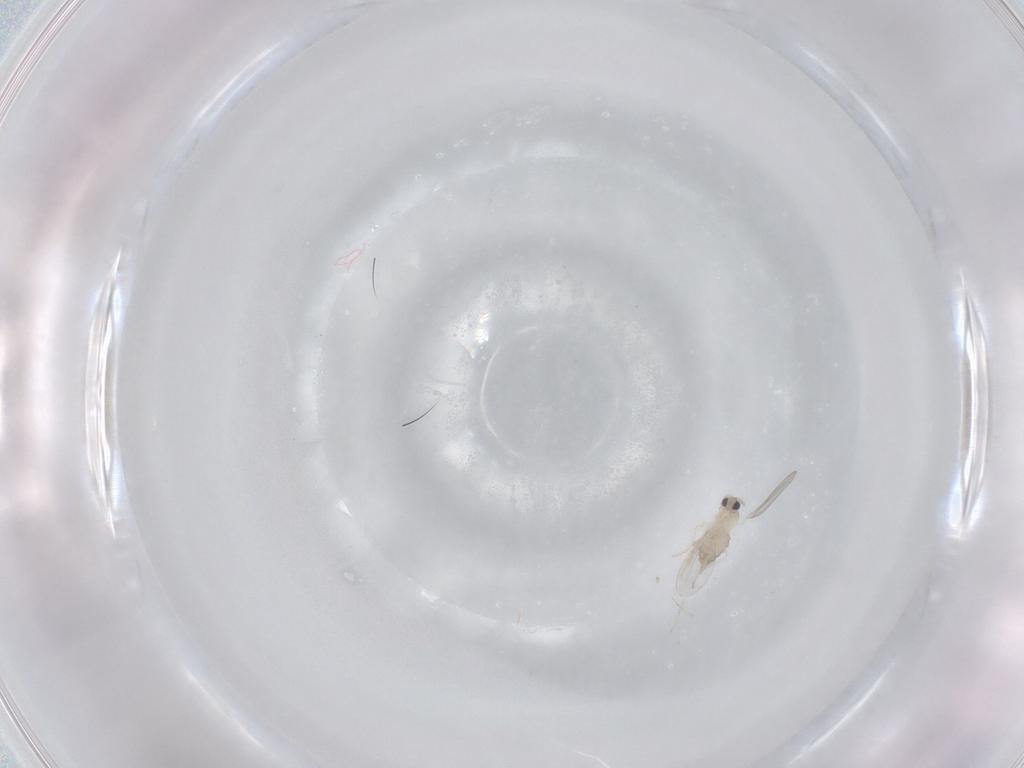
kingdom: Animalia
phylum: Arthropoda
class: Insecta
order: Diptera
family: Cecidomyiidae
